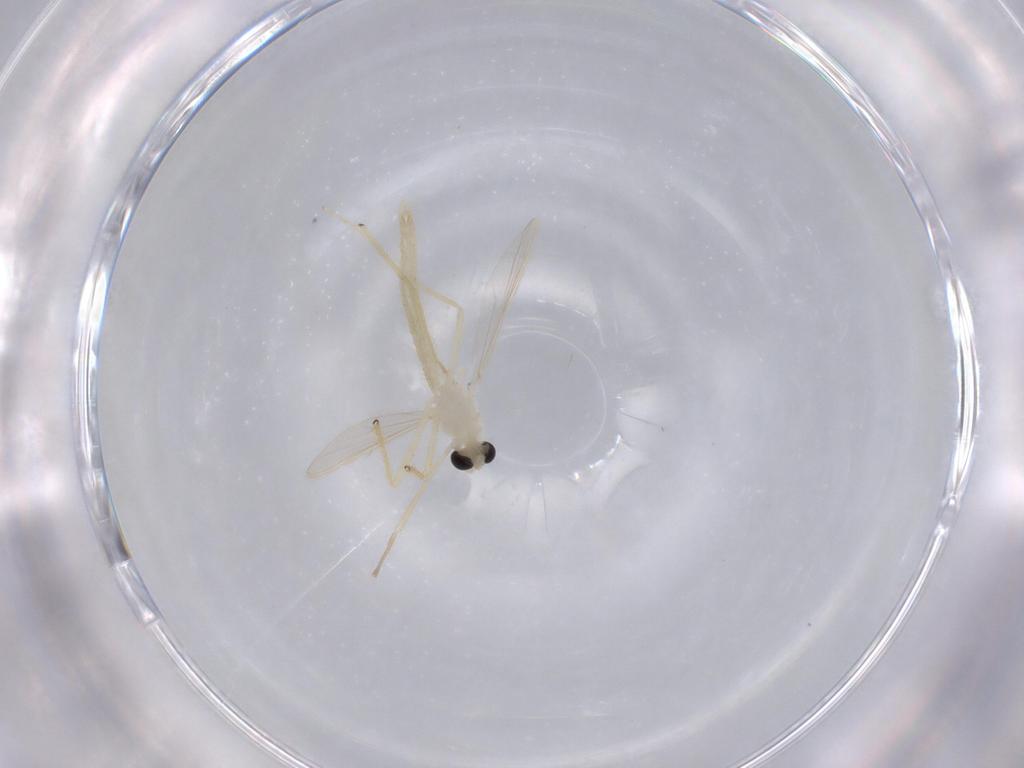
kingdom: Animalia
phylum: Arthropoda
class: Insecta
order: Diptera
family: Chironomidae
